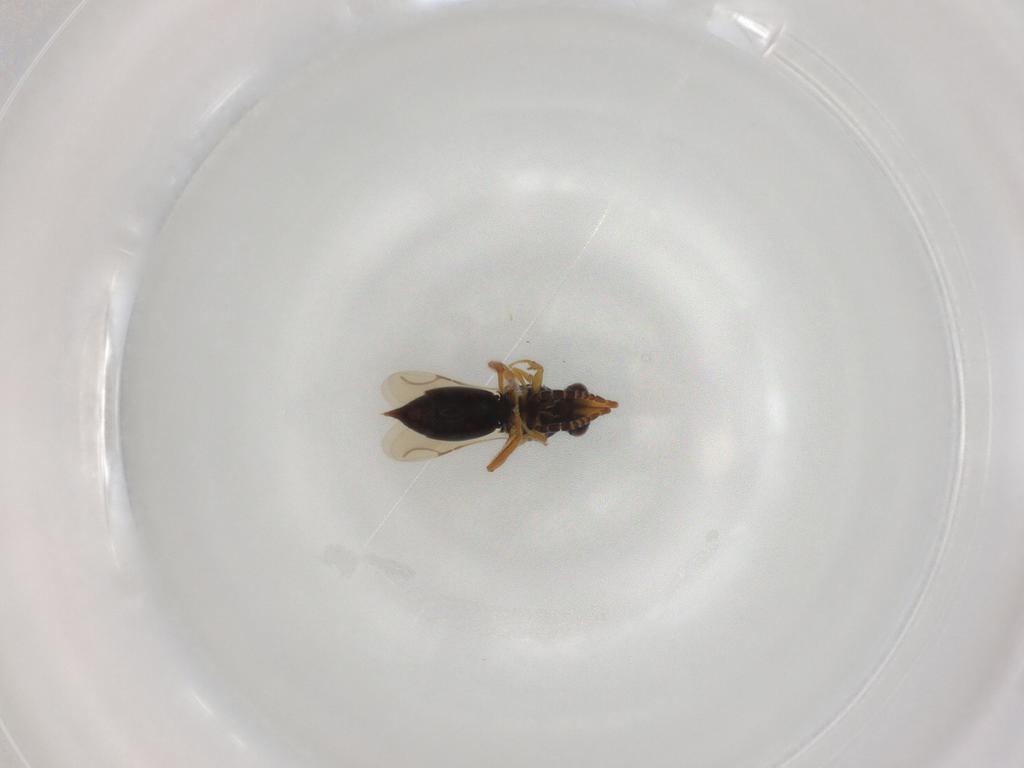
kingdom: Animalia
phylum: Arthropoda
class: Insecta
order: Hymenoptera
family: Ceraphronidae
